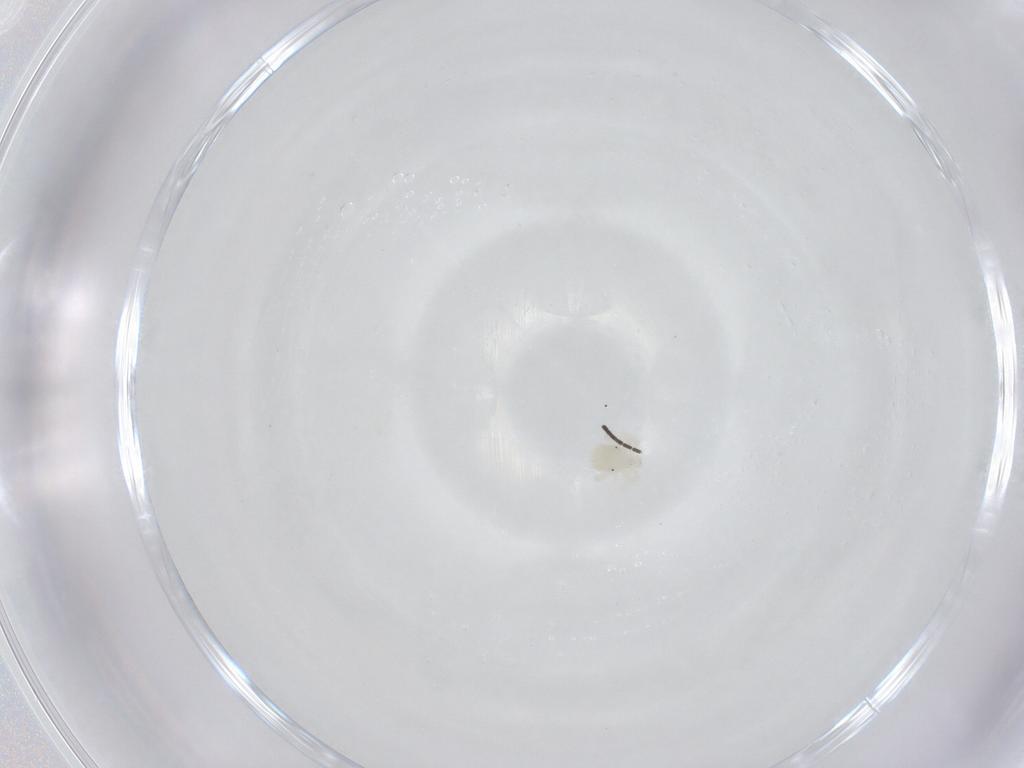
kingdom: Animalia
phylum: Arthropoda
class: Arachnida
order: Trombidiformes
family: Anystidae
